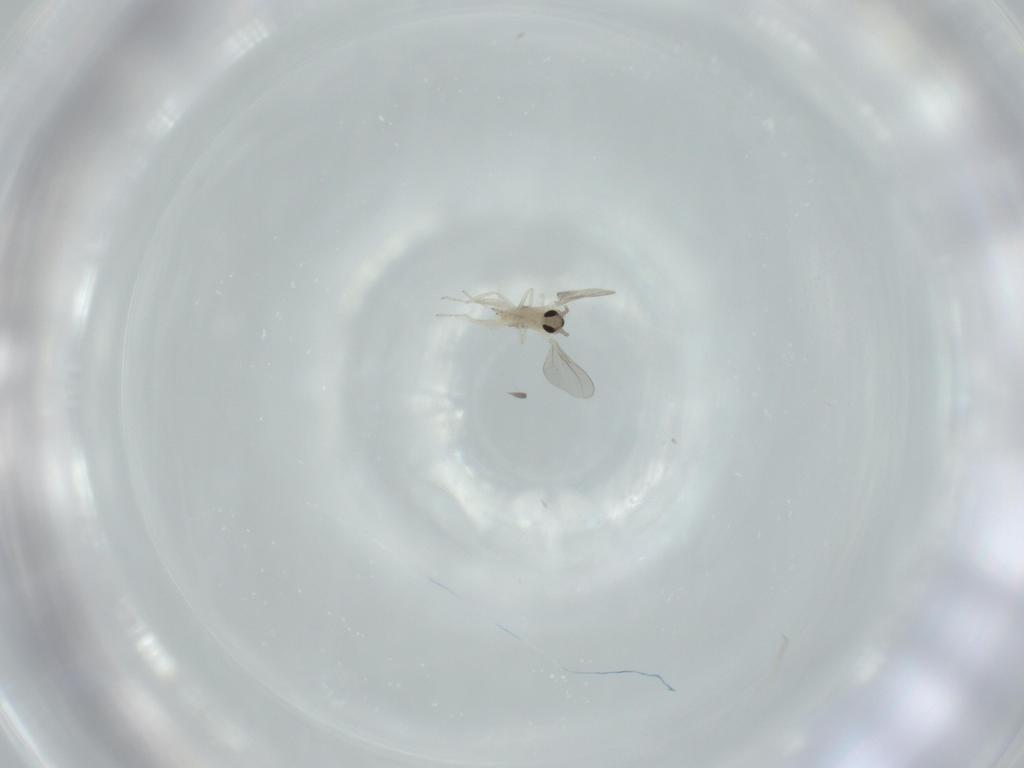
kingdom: Animalia
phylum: Arthropoda
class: Insecta
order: Diptera
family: Cecidomyiidae
